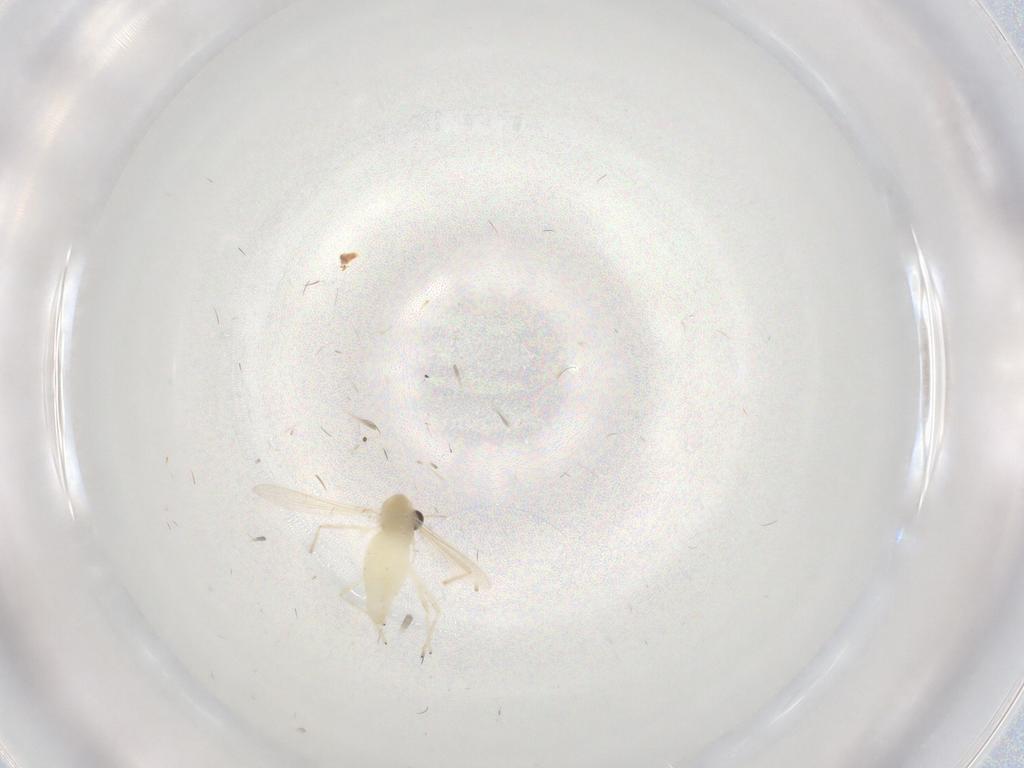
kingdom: Animalia
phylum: Arthropoda
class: Insecta
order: Diptera
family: Chironomidae
